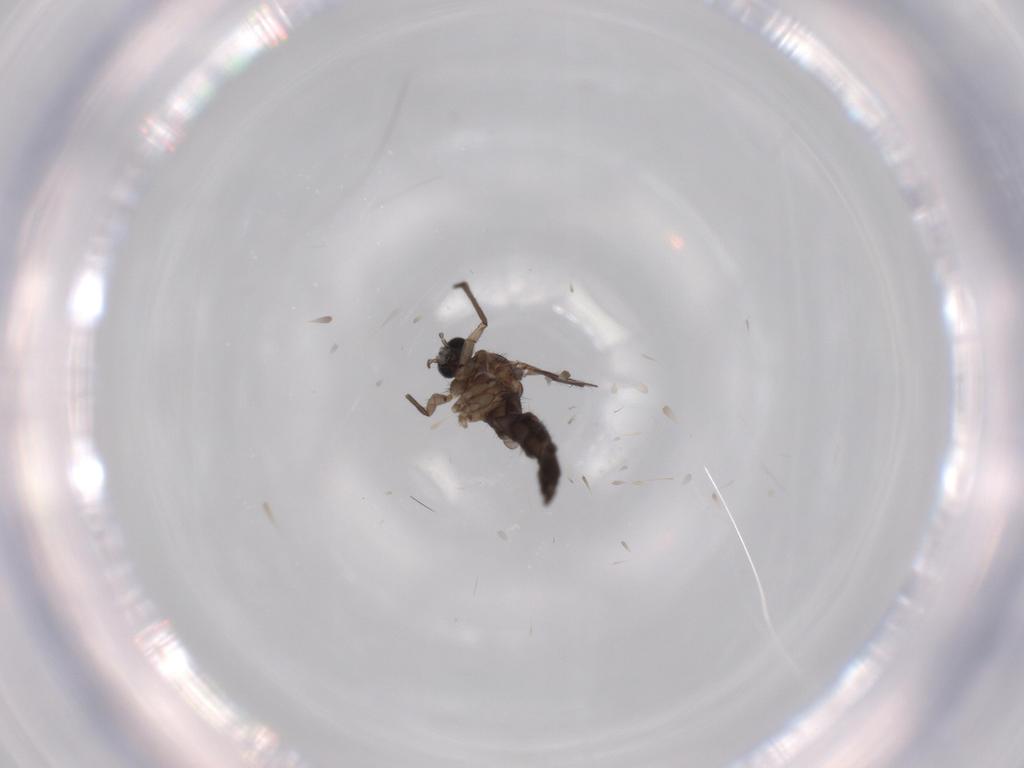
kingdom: Animalia
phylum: Arthropoda
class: Insecta
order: Diptera
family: Sciaridae
